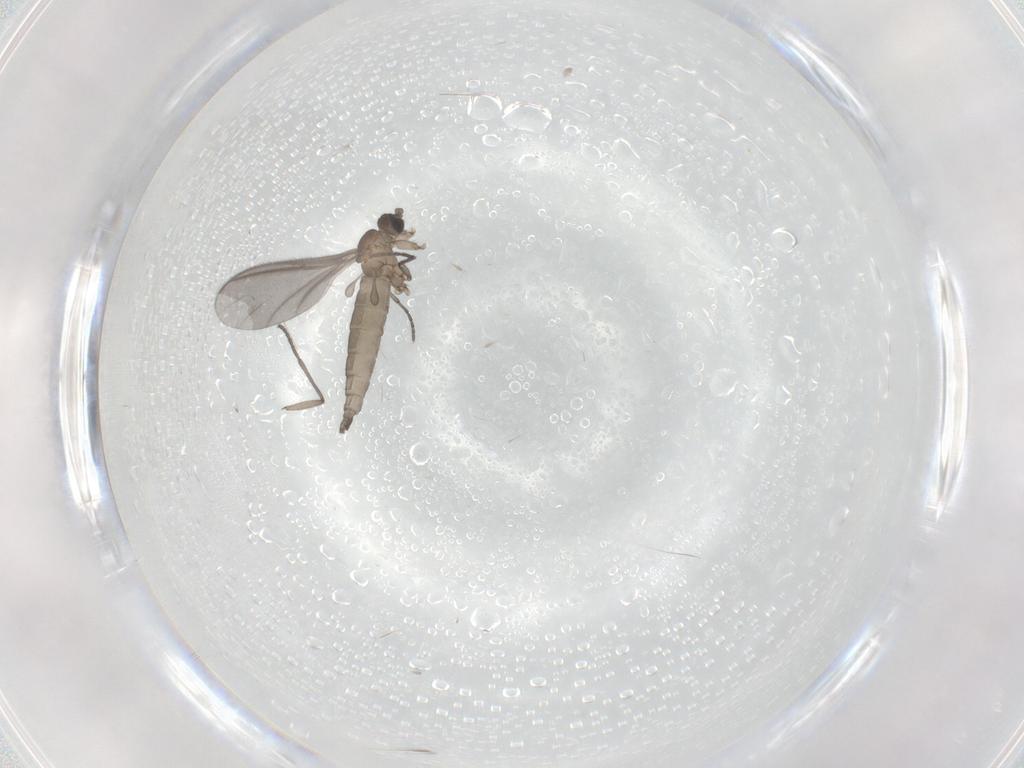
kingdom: Animalia
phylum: Arthropoda
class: Insecta
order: Diptera
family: Sciaridae
